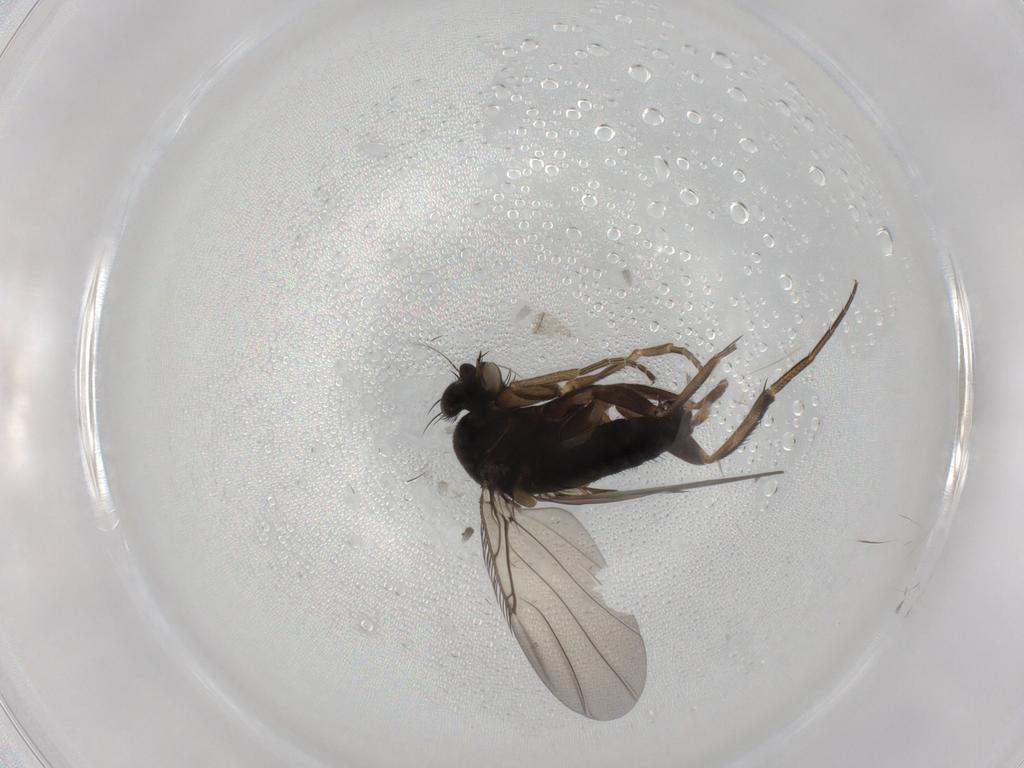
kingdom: Animalia
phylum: Arthropoda
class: Insecta
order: Diptera
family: Phoridae
